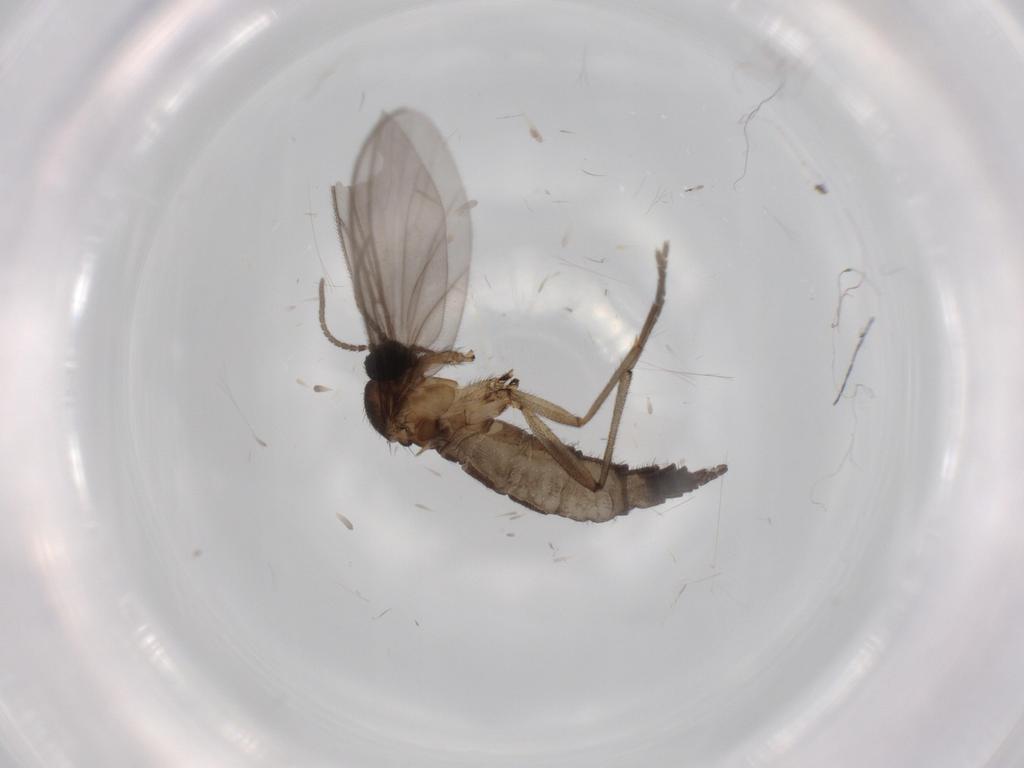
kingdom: Animalia
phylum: Arthropoda
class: Insecta
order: Diptera
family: Sciaridae
